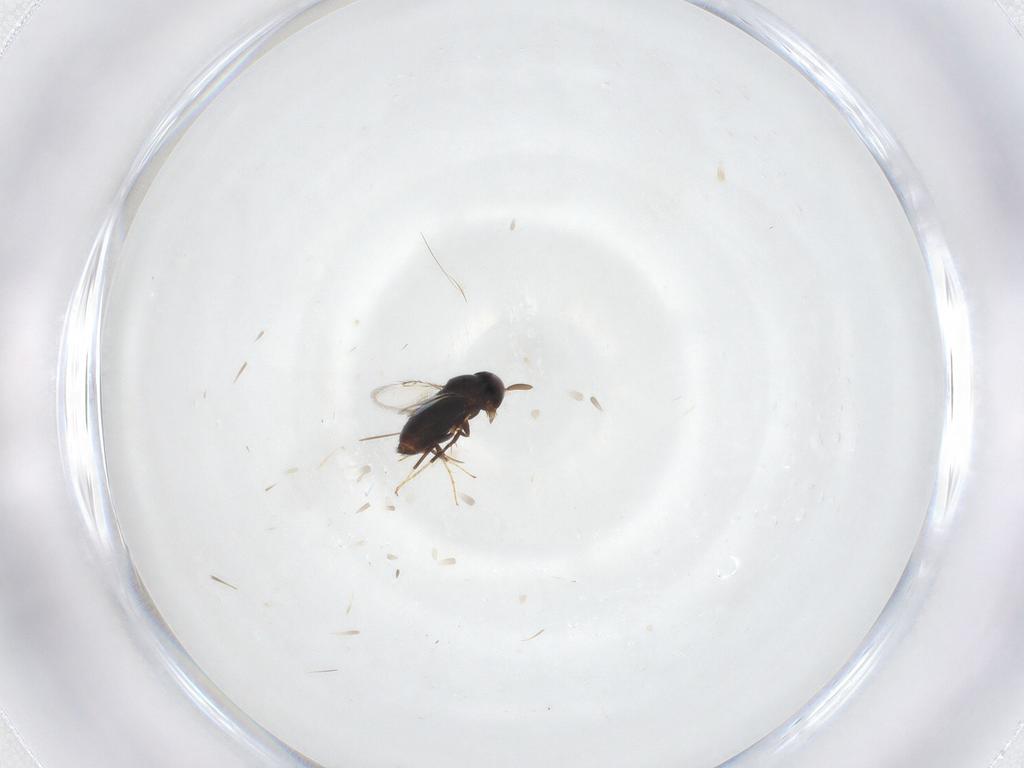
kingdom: Animalia
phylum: Arthropoda
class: Insecta
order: Hymenoptera
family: Signiphoridae
